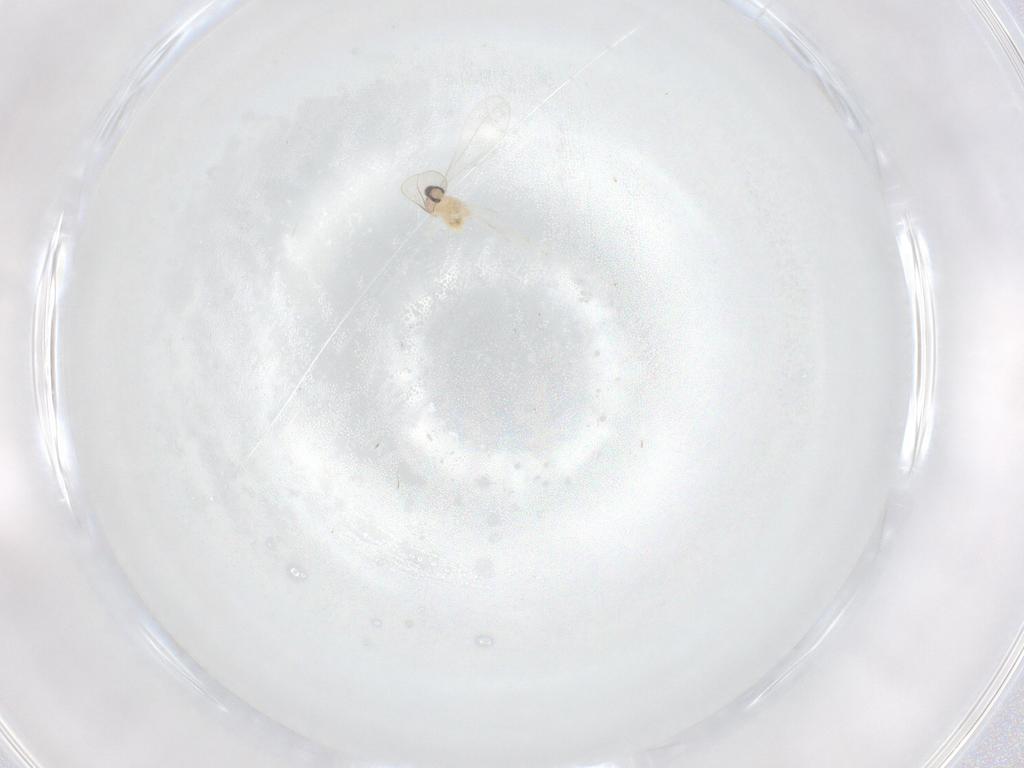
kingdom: Animalia
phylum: Arthropoda
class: Insecta
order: Diptera
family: Cecidomyiidae
